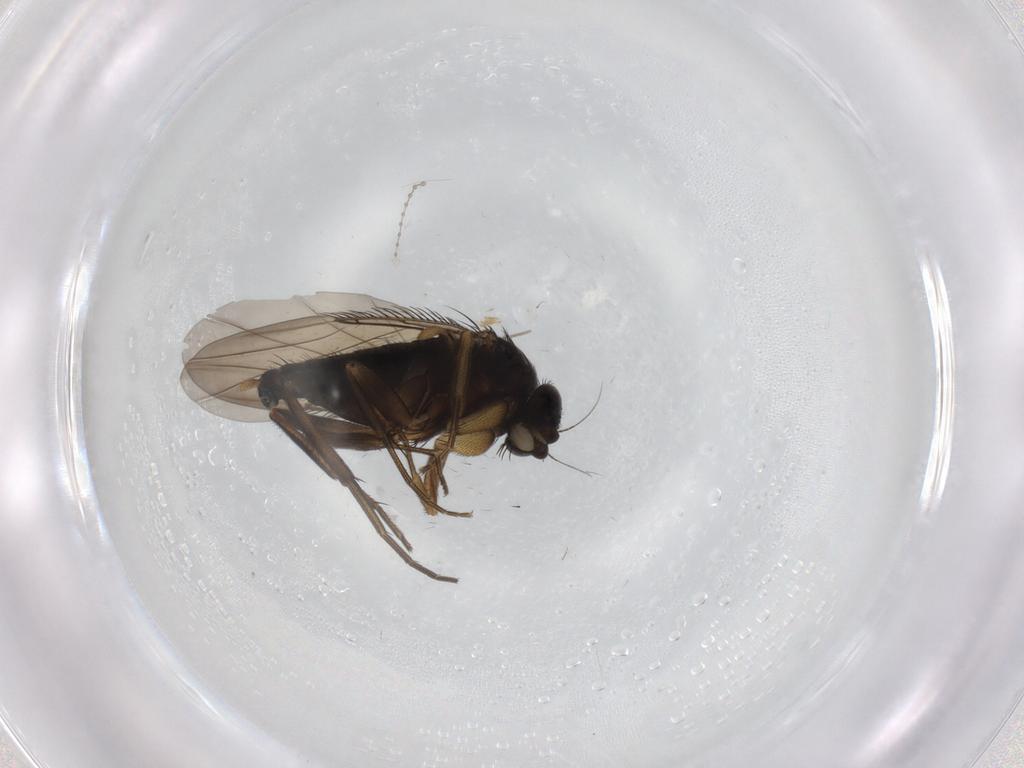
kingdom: Animalia
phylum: Arthropoda
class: Insecta
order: Diptera
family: Phoridae
